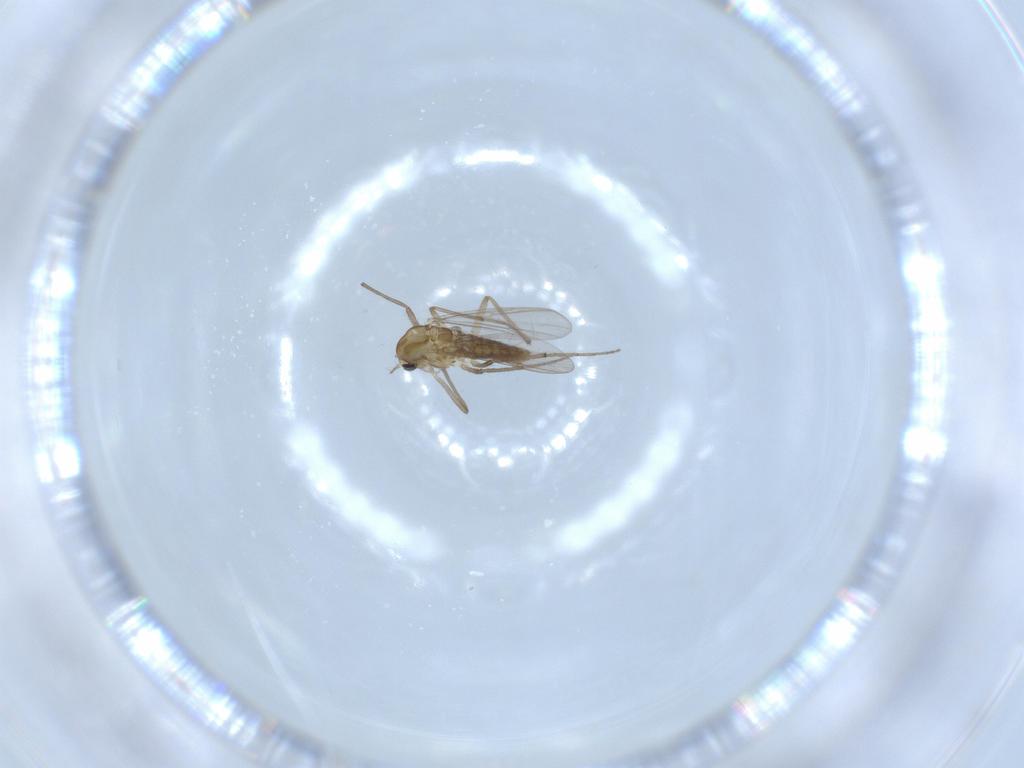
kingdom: Animalia
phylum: Arthropoda
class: Insecta
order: Diptera
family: Chironomidae
